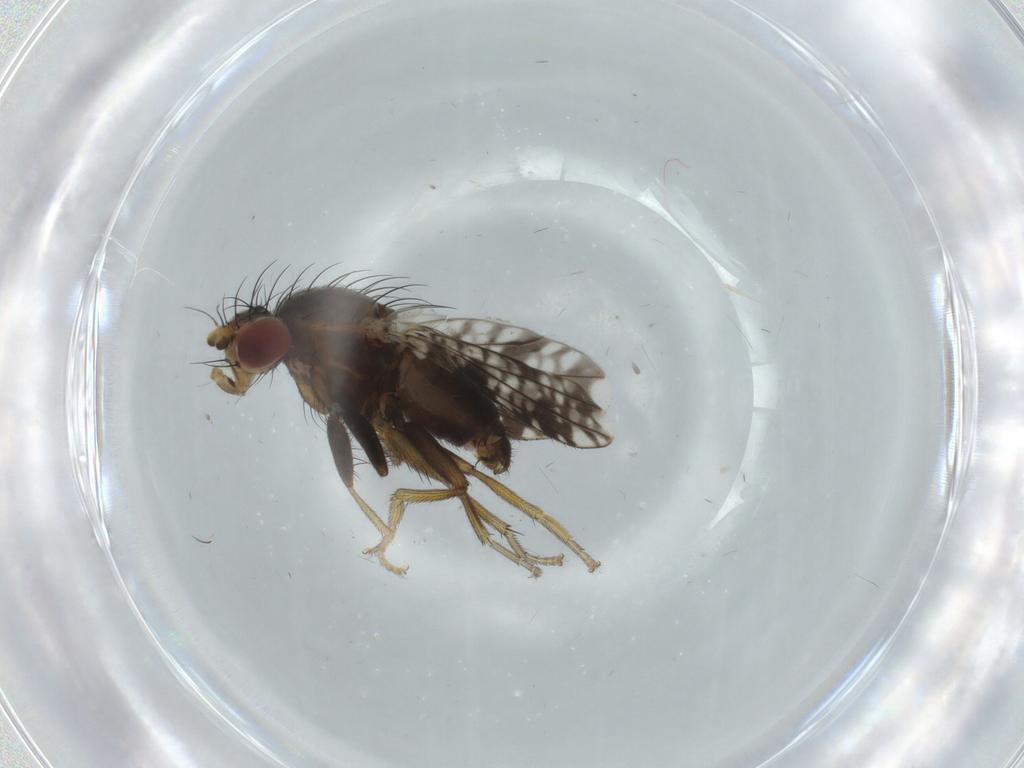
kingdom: Animalia
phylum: Arthropoda
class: Insecta
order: Diptera
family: Tephritidae
